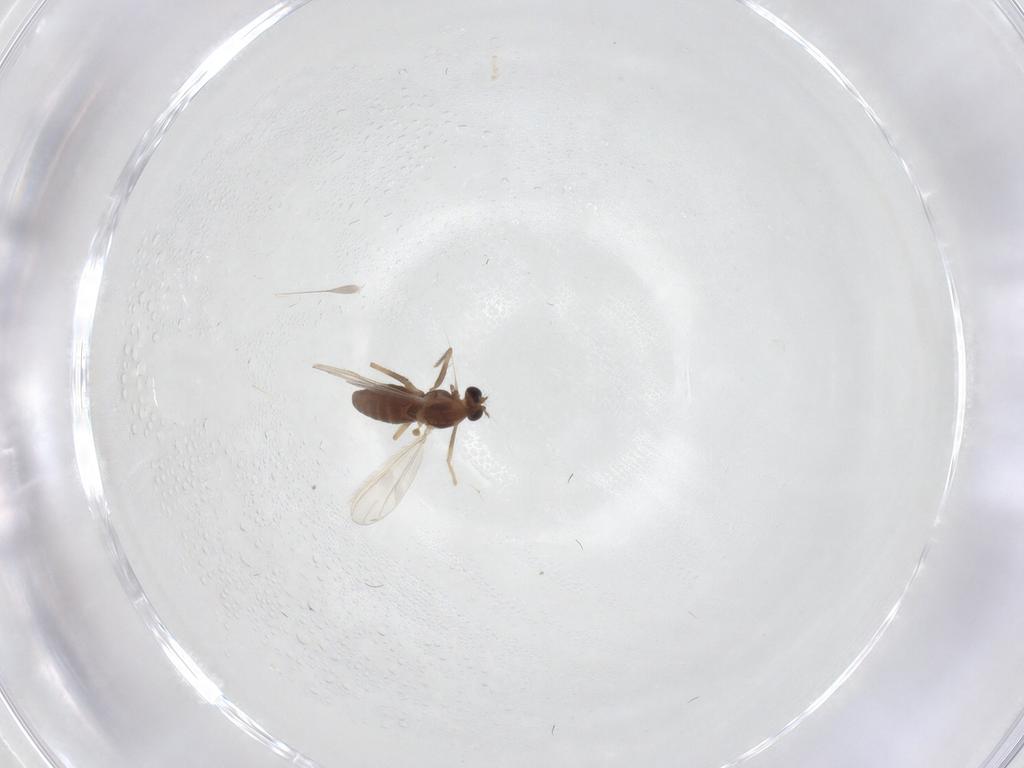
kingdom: Animalia
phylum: Arthropoda
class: Insecta
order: Diptera
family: Chironomidae
